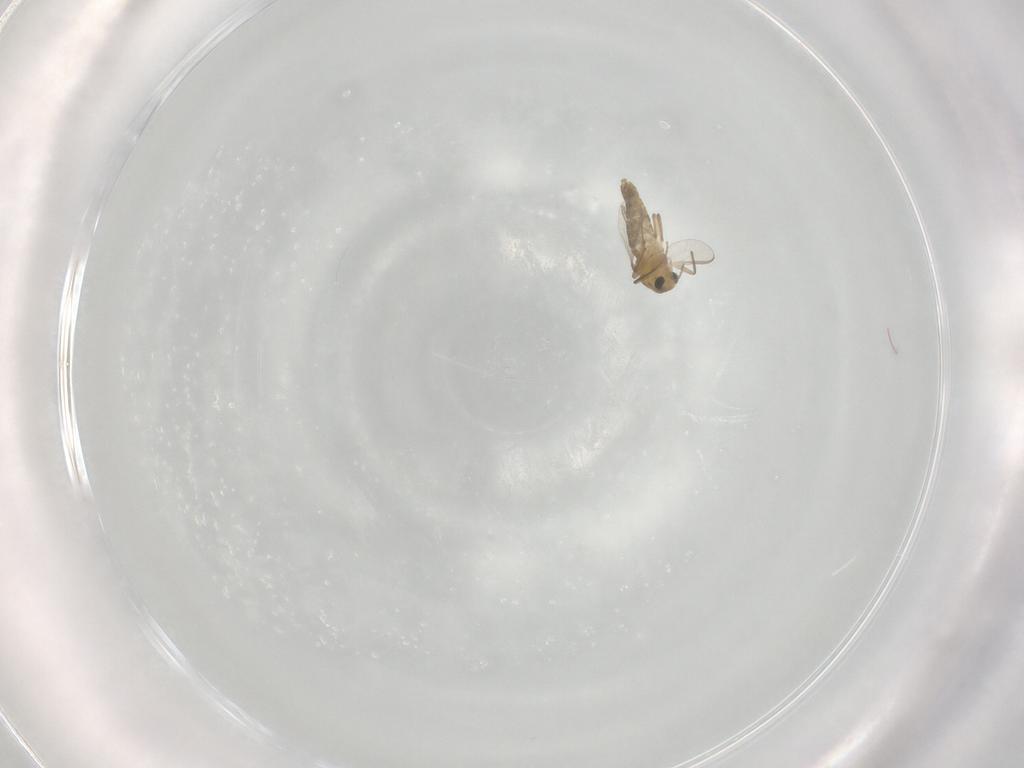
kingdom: Animalia
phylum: Arthropoda
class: Insecta
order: Diptera
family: Chironomidae
